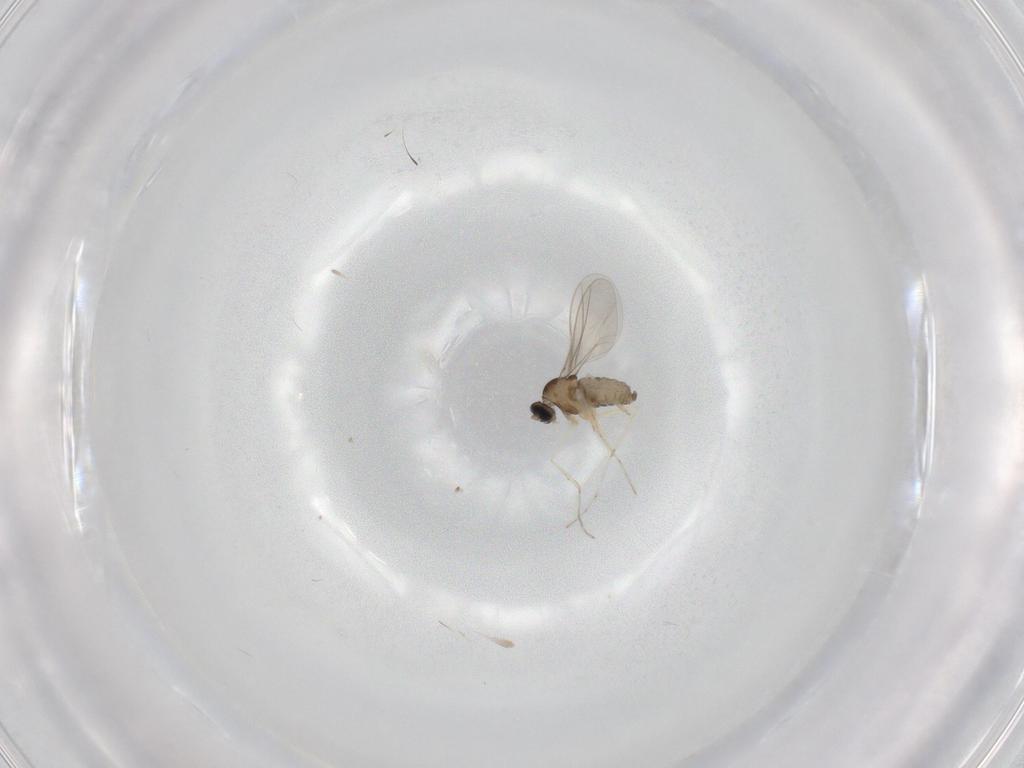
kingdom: Animalia
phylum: Arthropoda
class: Insecta
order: Diptera
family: Cecidomyiidae
